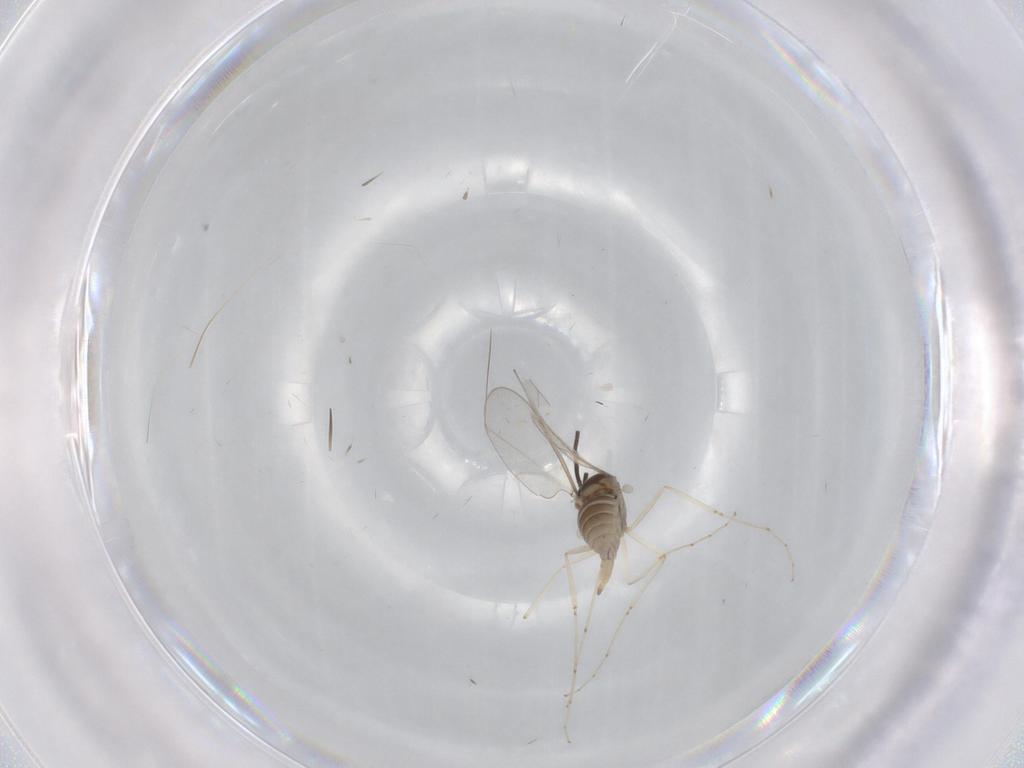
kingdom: Animalia
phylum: Arthropoda
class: Insecta
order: Diptera
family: Cecidomyiidae
